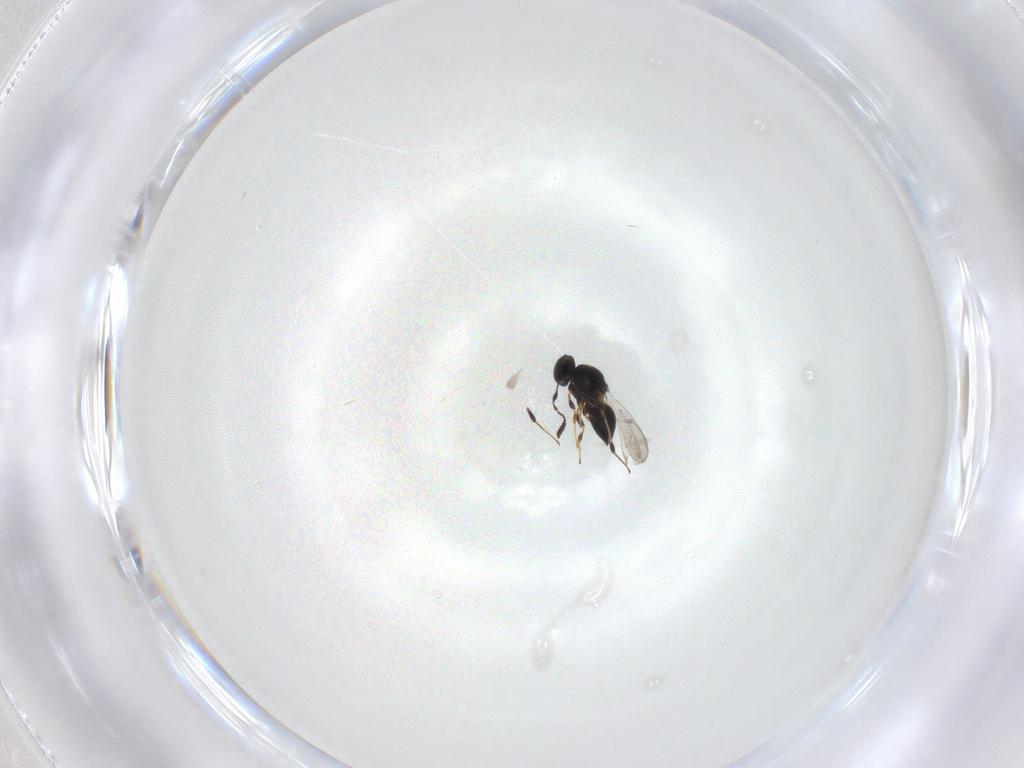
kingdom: Animalia
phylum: Arthropoda
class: Insecta
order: Hymenoptera
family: Platygastridae
